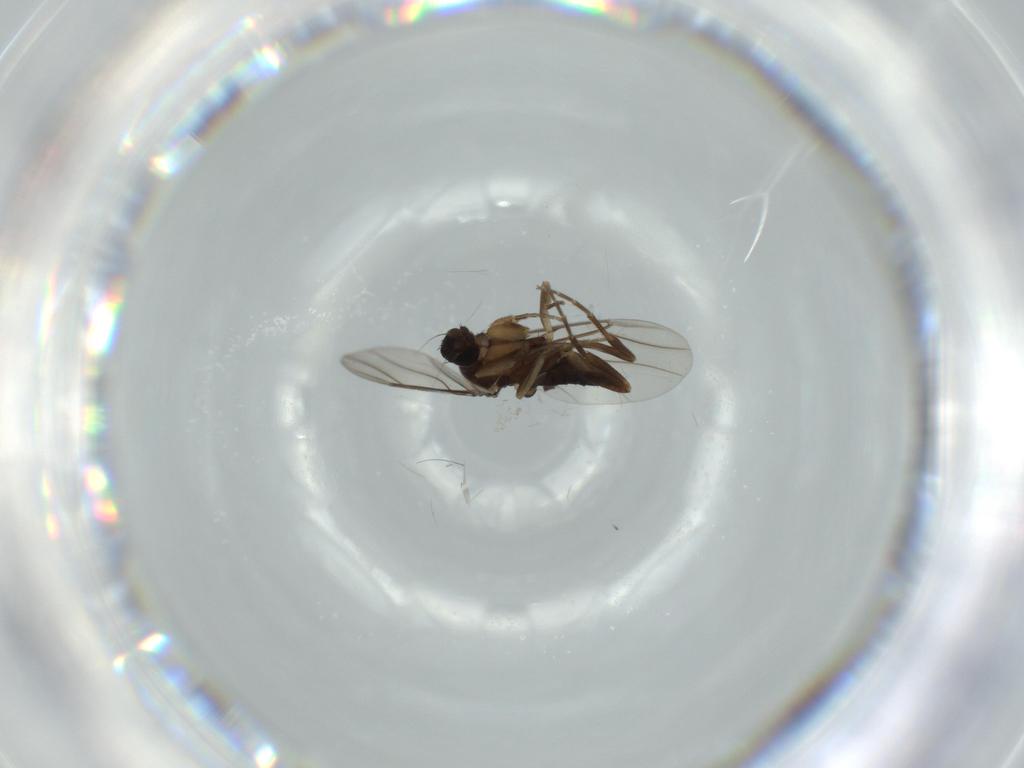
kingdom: Animalia
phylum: Arthropoda
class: Insecta
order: Diptera
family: Phoridae
